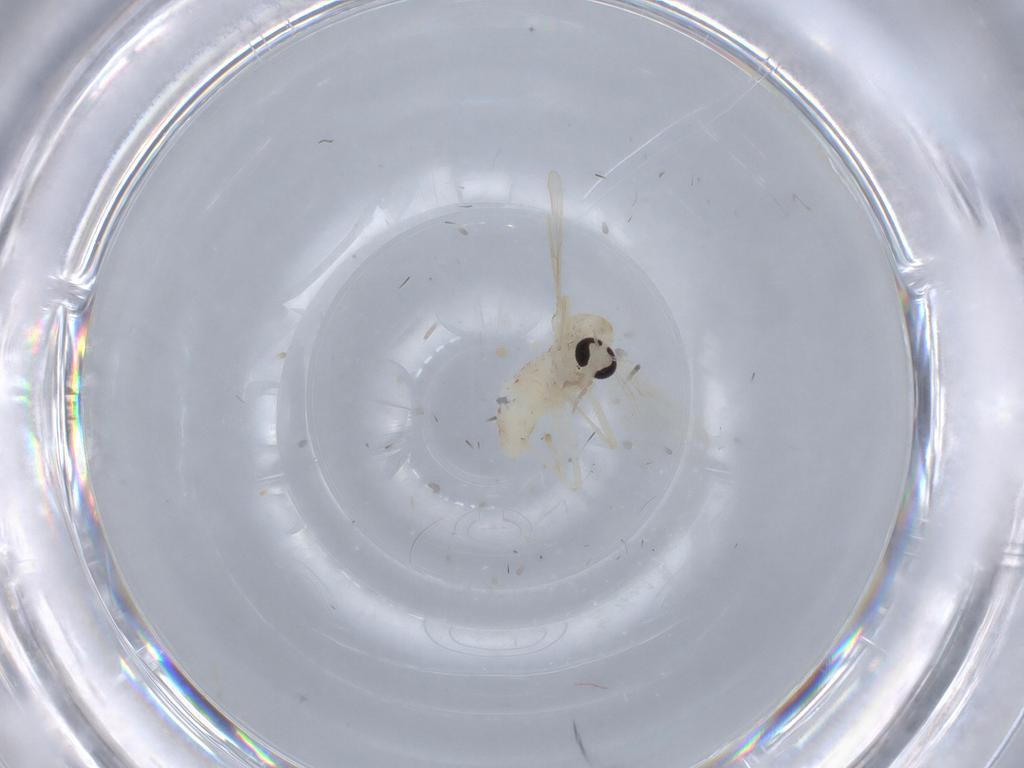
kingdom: Animalia
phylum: Arthropoda
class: Insecta
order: Diptera
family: Chironomidae
